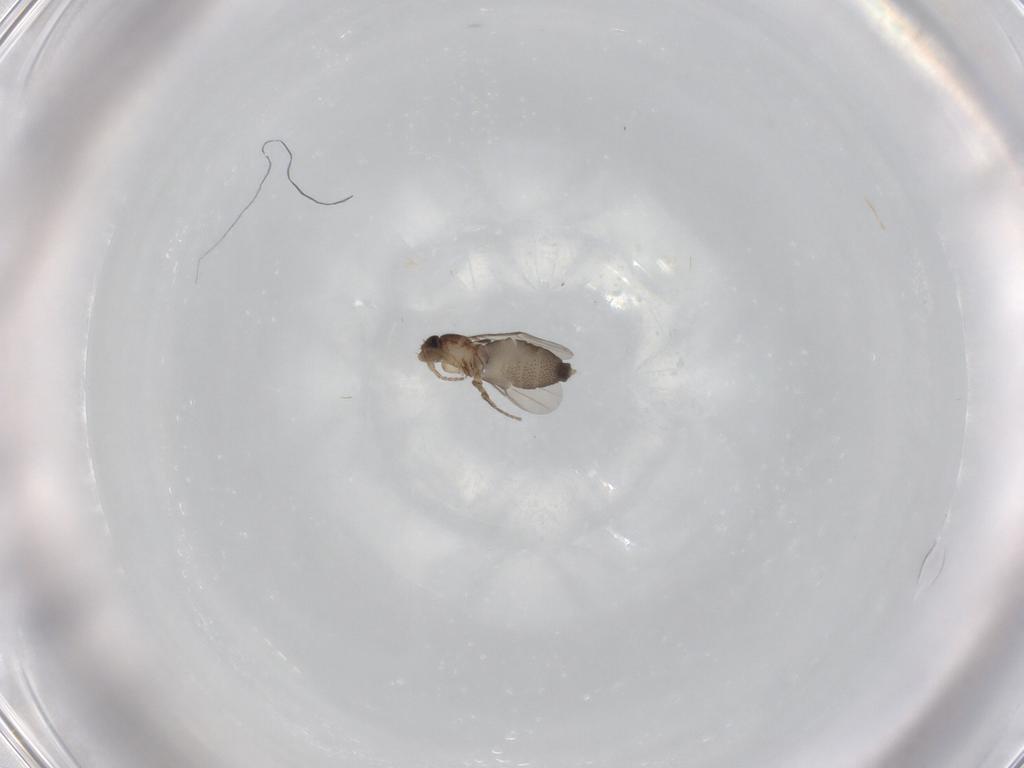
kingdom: Animalia
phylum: Arthropoda
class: Insecta
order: Diptera
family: Phoridae
